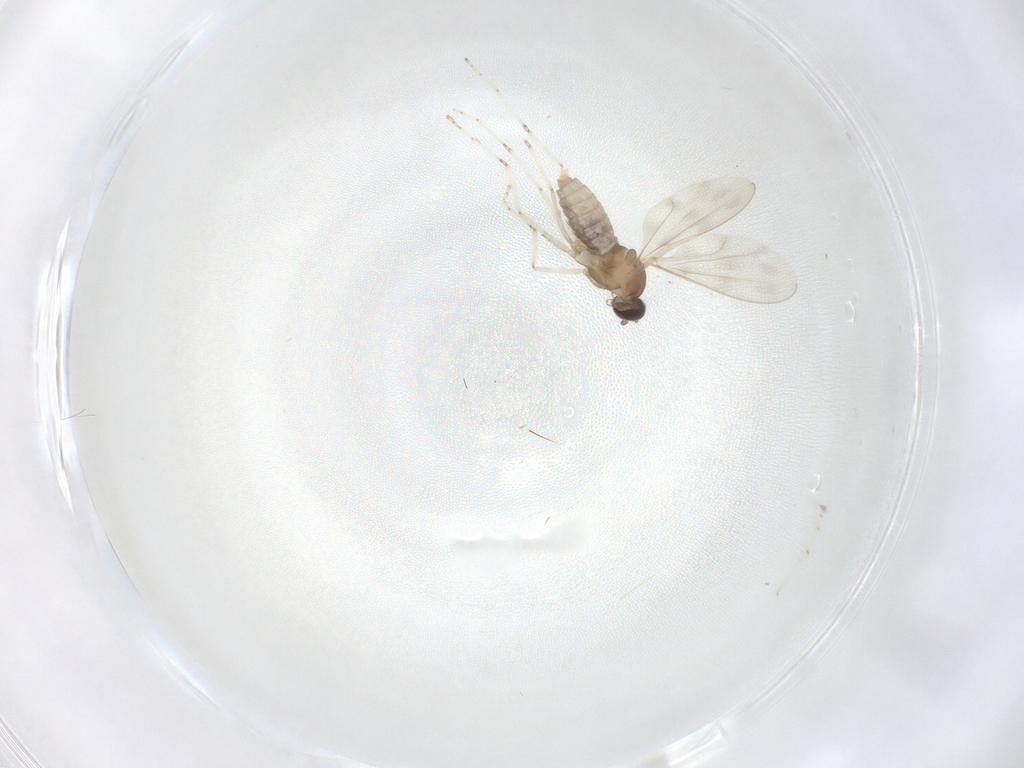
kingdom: Animalia
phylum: Arthropoda
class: Insecta
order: Diptera
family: Cecidomyiidae
